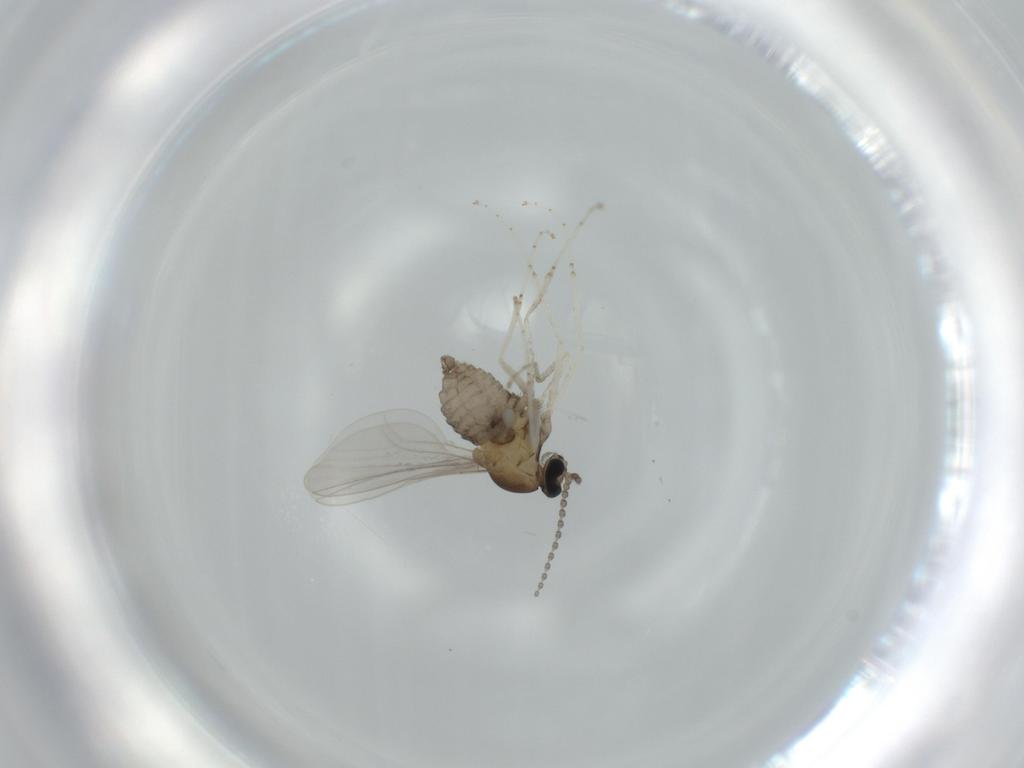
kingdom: Animalia
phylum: Arthropoda
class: Insecta
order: Diptera
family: Cecidomyiidae
